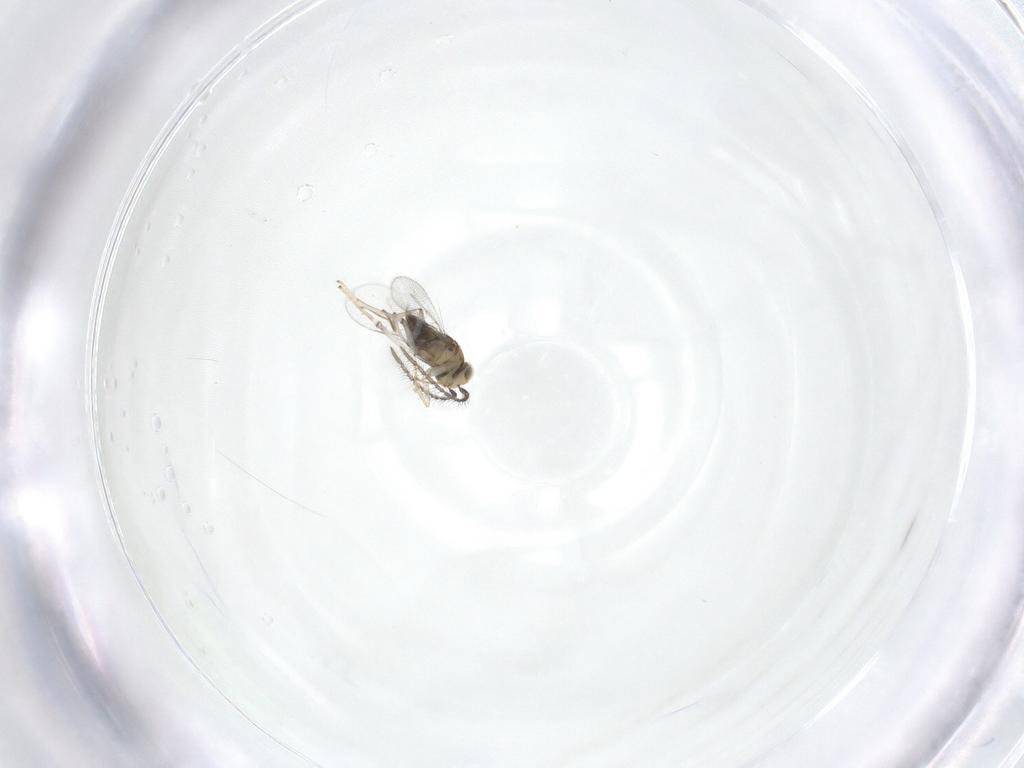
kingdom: Animalia
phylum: Arthropoda
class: Insecta
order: Hymenoptera
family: Encyrtidae
